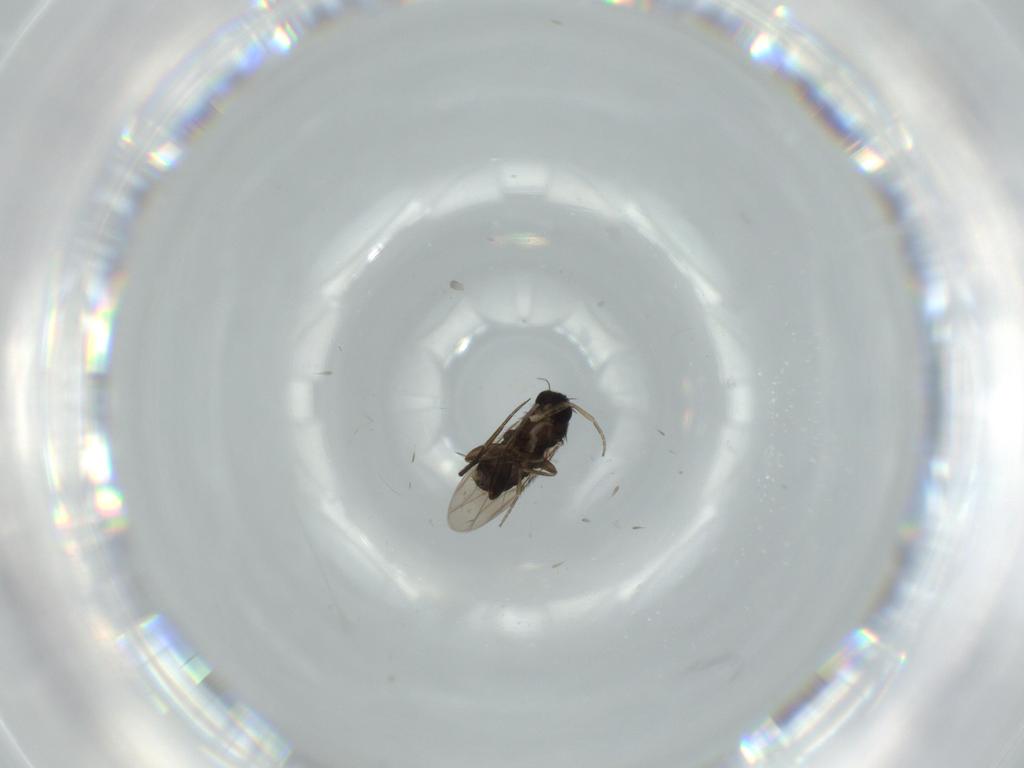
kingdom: Animalia
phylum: Arthropoda
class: Insecta
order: Diptera
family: Phoridae
